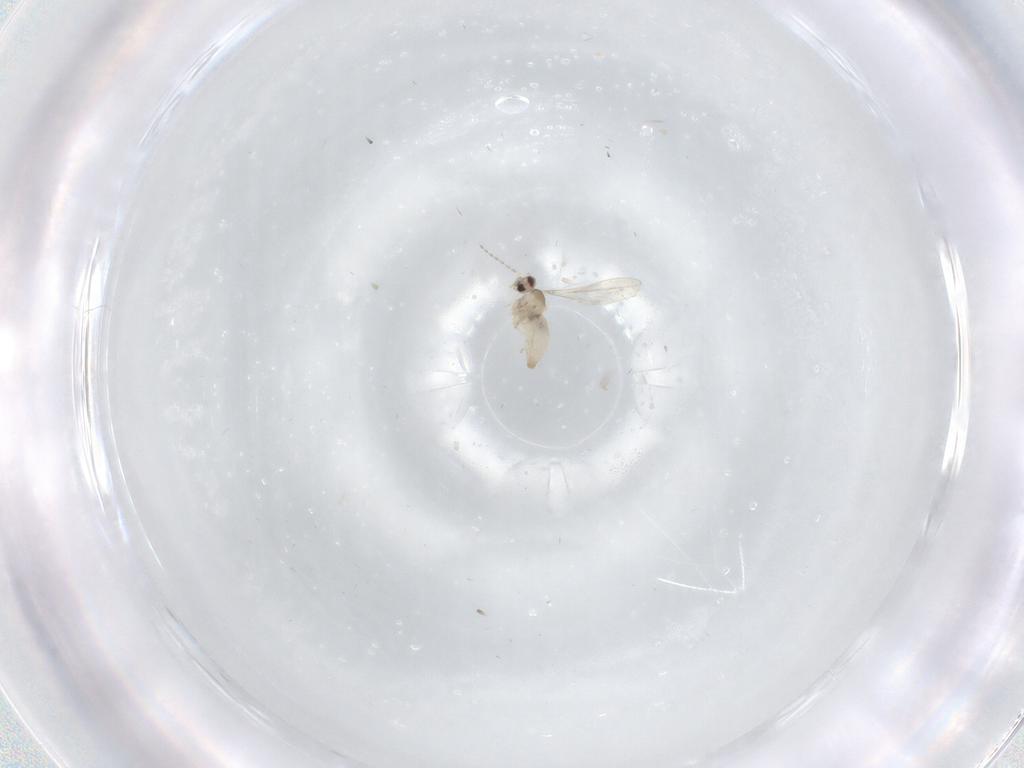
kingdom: Animalia
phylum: Arthropoda
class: Insecta
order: Diptera
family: Cecidomyiidae
